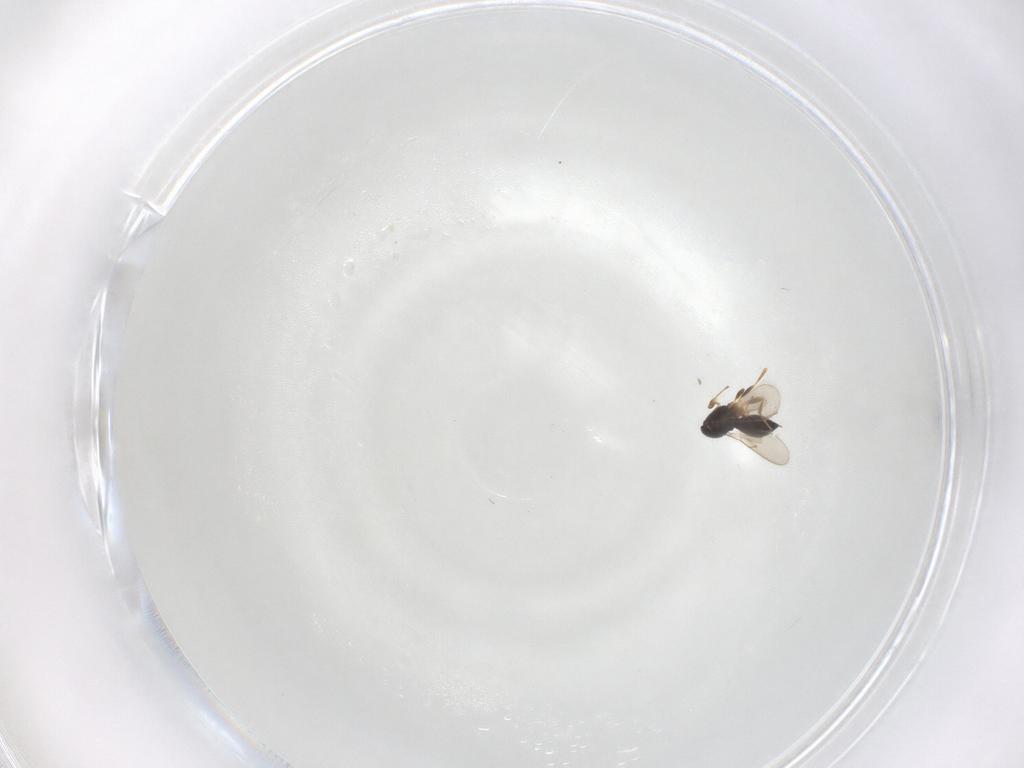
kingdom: Animalia
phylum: Arthropoda
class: Insecta
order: Hymenoptera
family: Scelionidae
